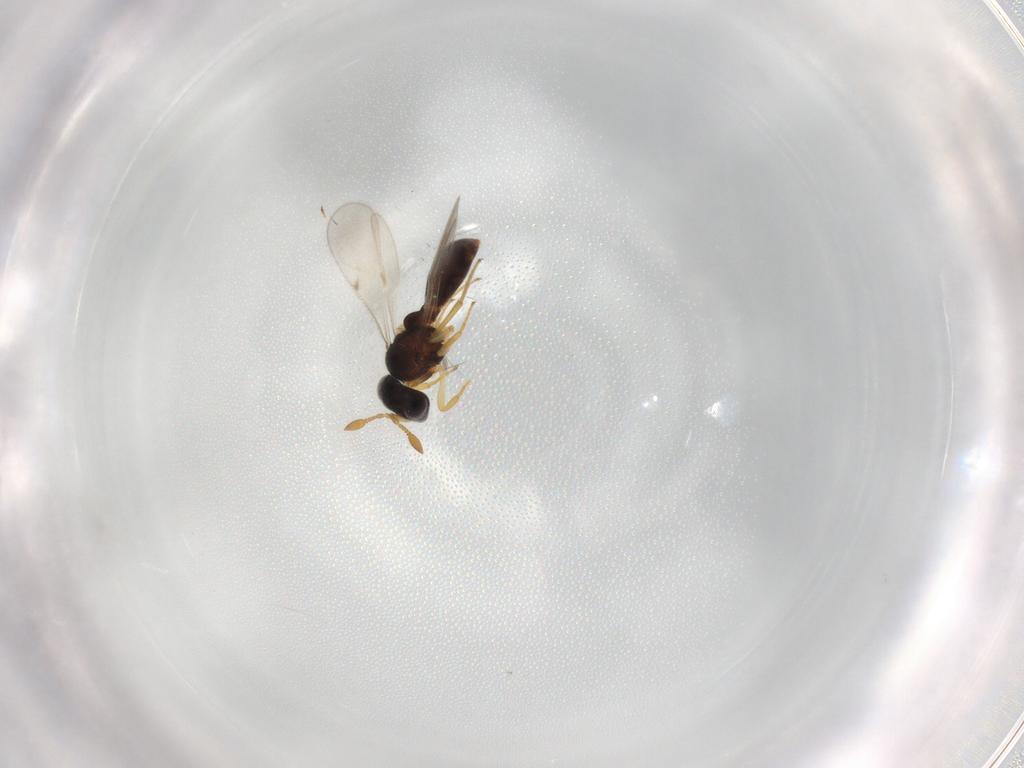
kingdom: Animalia
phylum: Arthropoda
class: Insecta
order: Hymenoptera
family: Scelionidae
